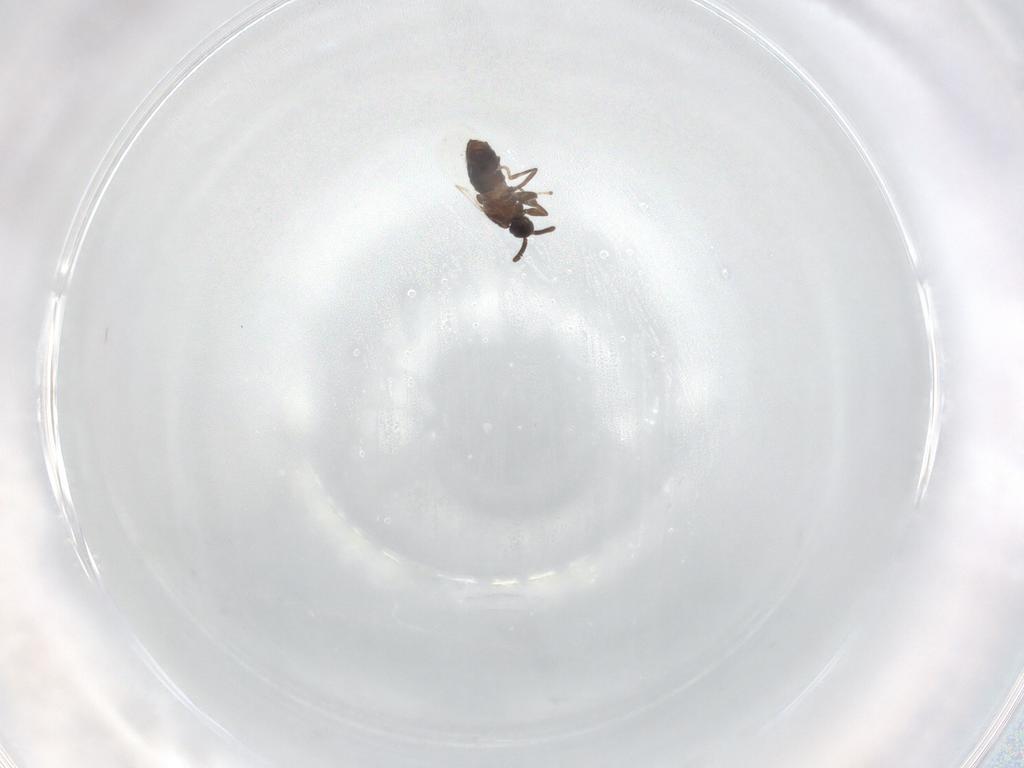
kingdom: Animalia
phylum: Arthropoda
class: Insecta
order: Diptera
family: Scatopsidae
